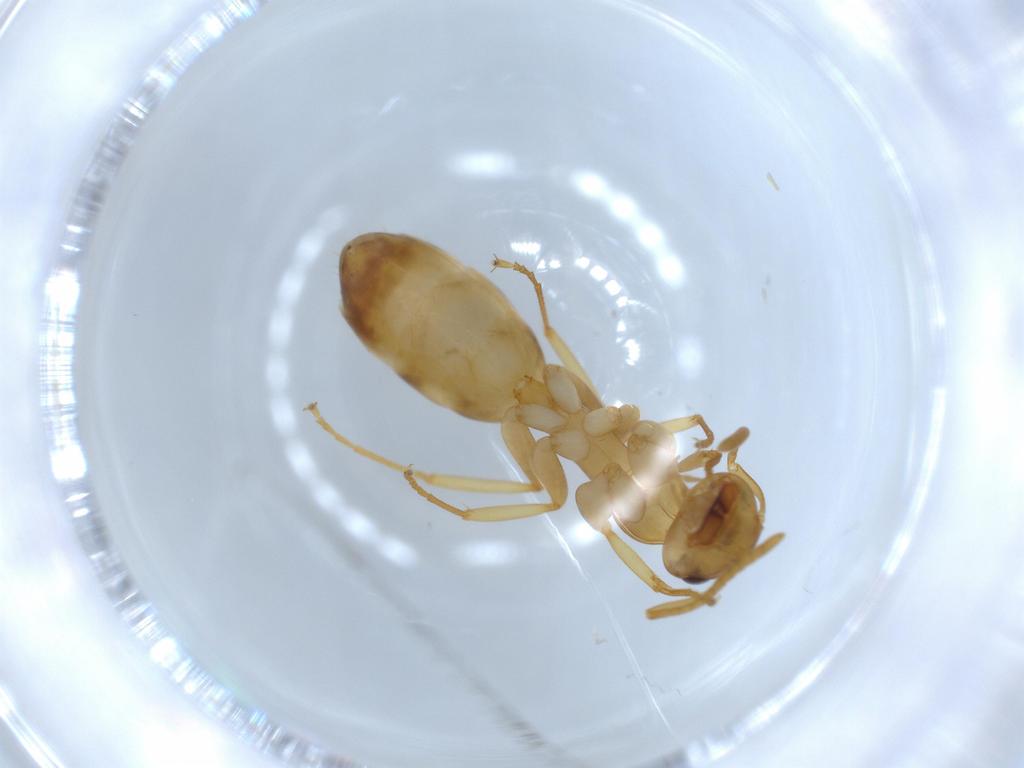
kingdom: Animalia
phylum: Arthropoda
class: Insecta
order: Hymenoptera
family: Formicidae
